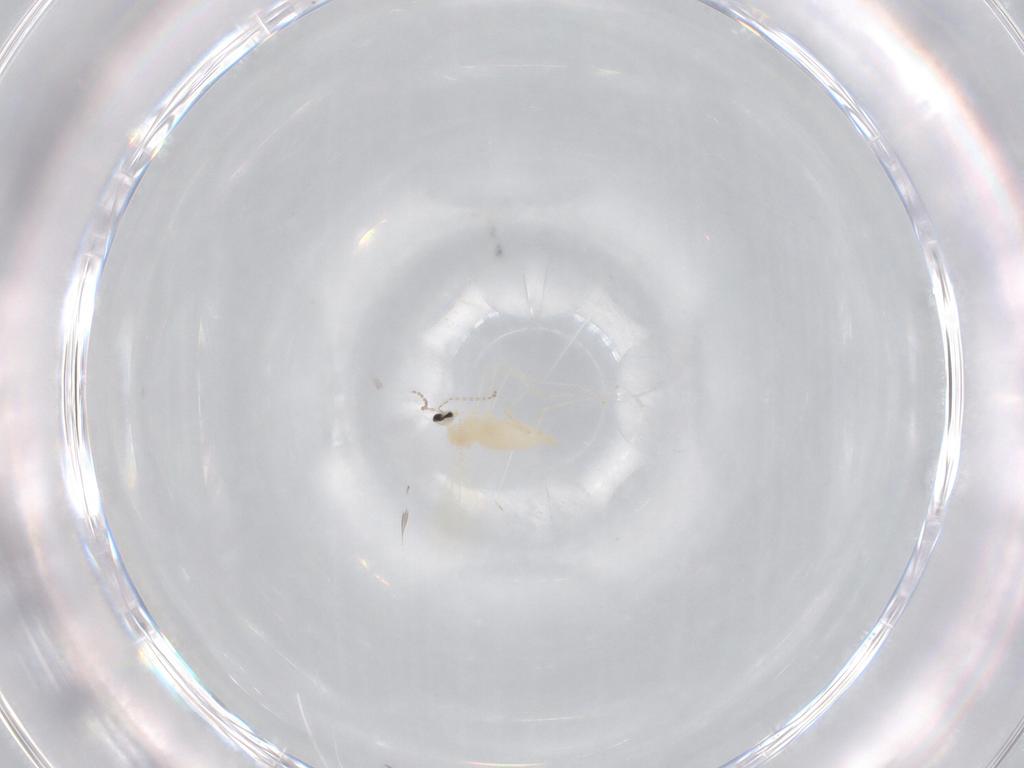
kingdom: Animalia
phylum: Arthropoda
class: Insecta
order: Diptera
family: Cecidomyiidae
